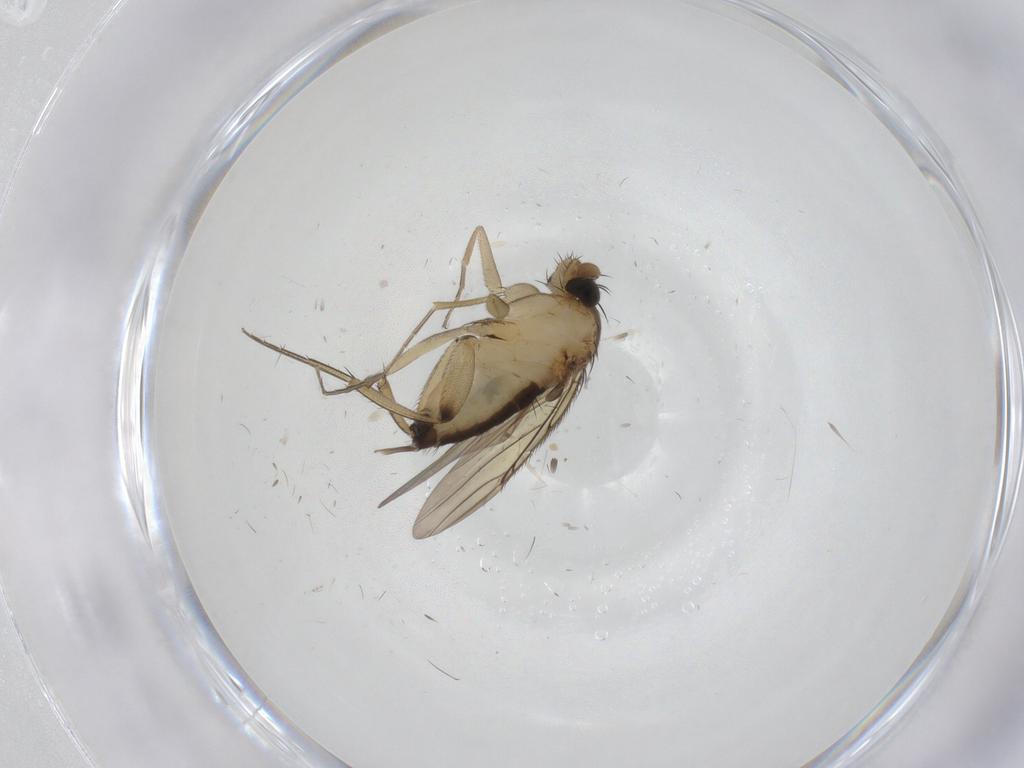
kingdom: Animalia
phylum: Arthropoda
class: Insecta
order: Diptera
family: Phoridae
